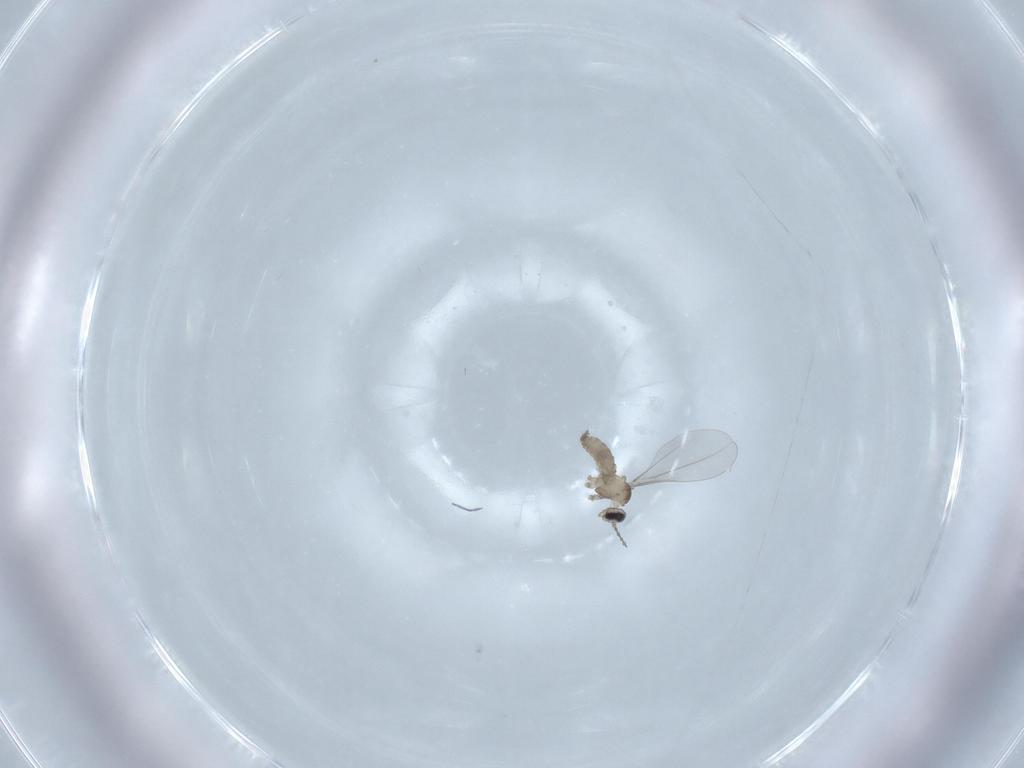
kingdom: Animalia
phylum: Arthropoda
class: Insecta
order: Diptera
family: Cecidomyiidae
